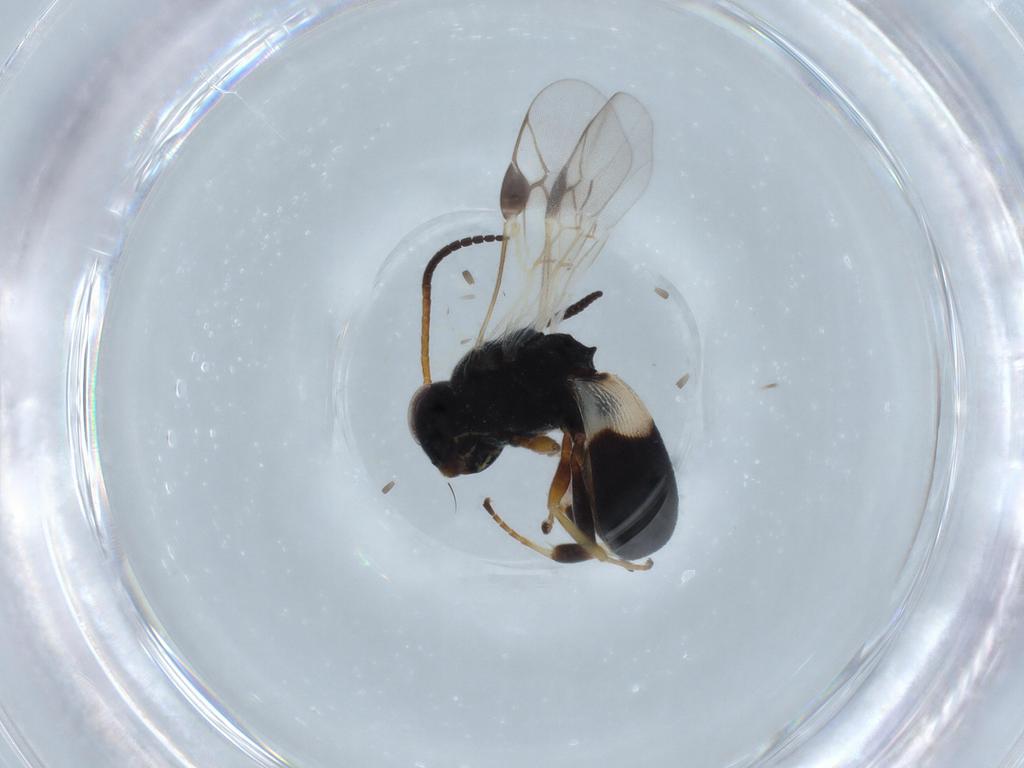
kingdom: Animalia
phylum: Arthropoda
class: Insecta
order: Hymenoptera
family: Braconidae
